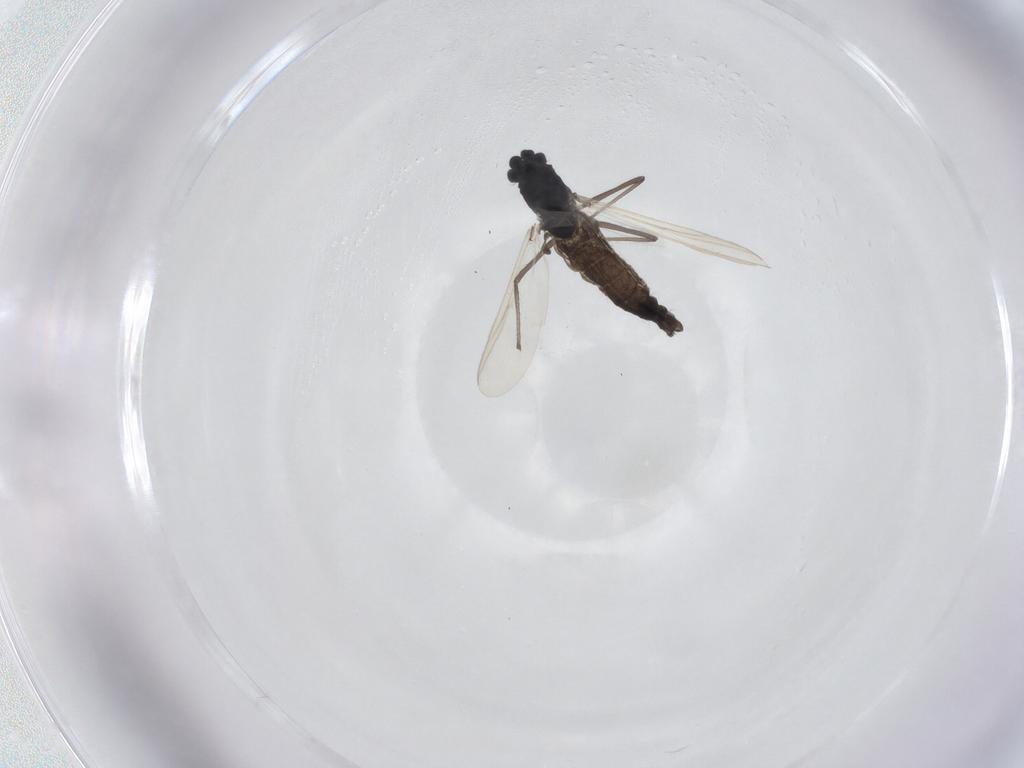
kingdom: Animalia
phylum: Arthropoda
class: Insecta
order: Diptera
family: Chironomidae
